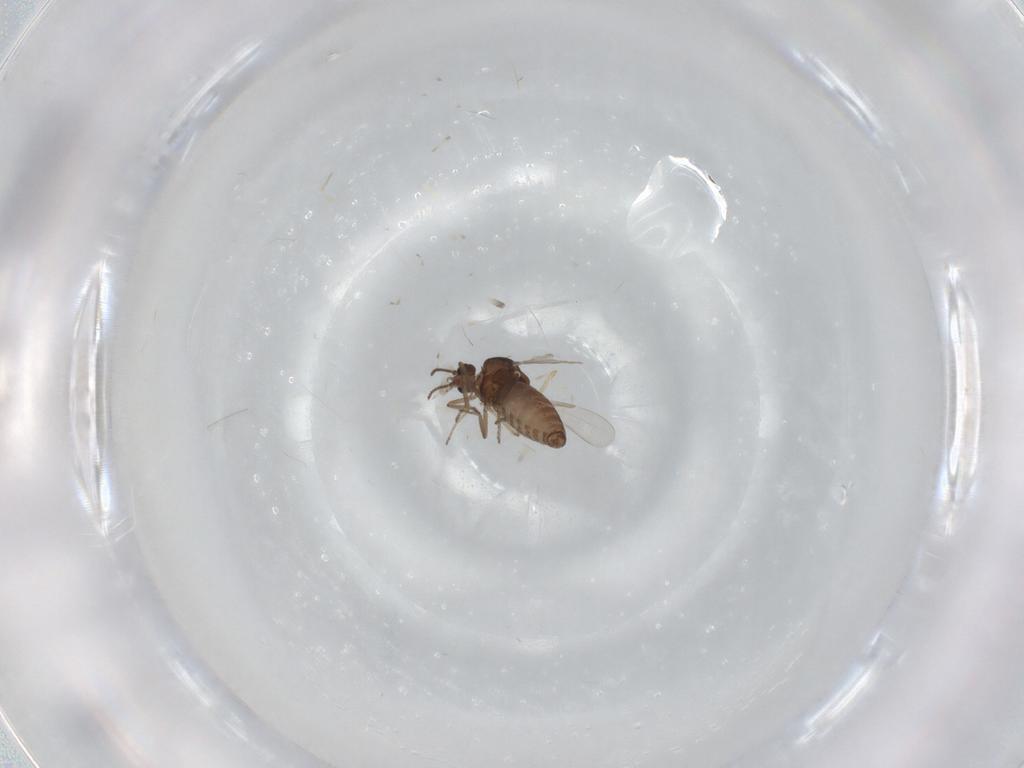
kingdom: Animalia
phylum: Arthropoda
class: Insecta
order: Diptera
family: Ceratopogonidae
